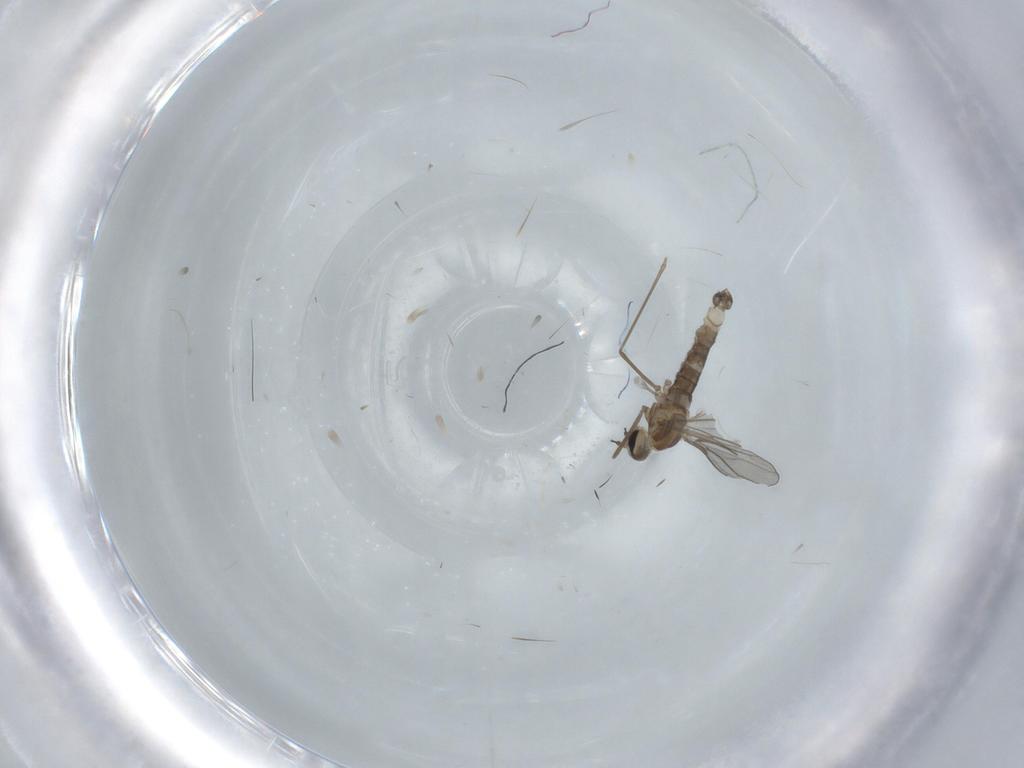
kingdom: Animalia
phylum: Arthropoda
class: Insecta
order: Diptera
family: Cecidomyiidae
